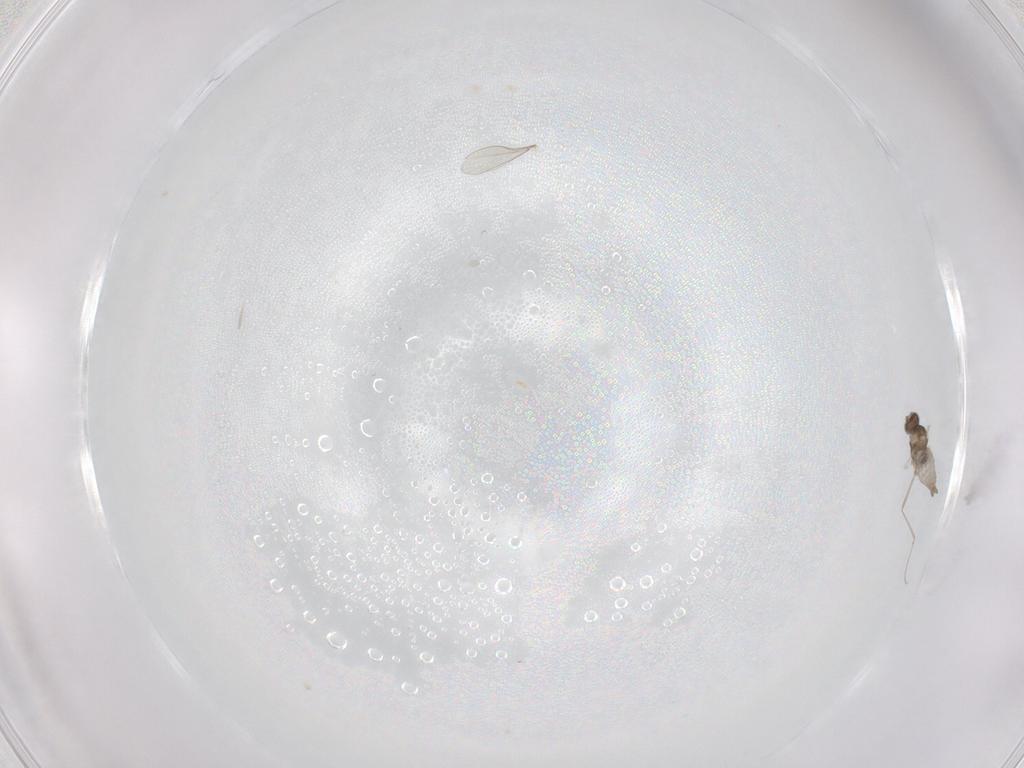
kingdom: Animalia
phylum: Arthropoda
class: Insecta
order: Diptera
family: Cecidomyiidae
